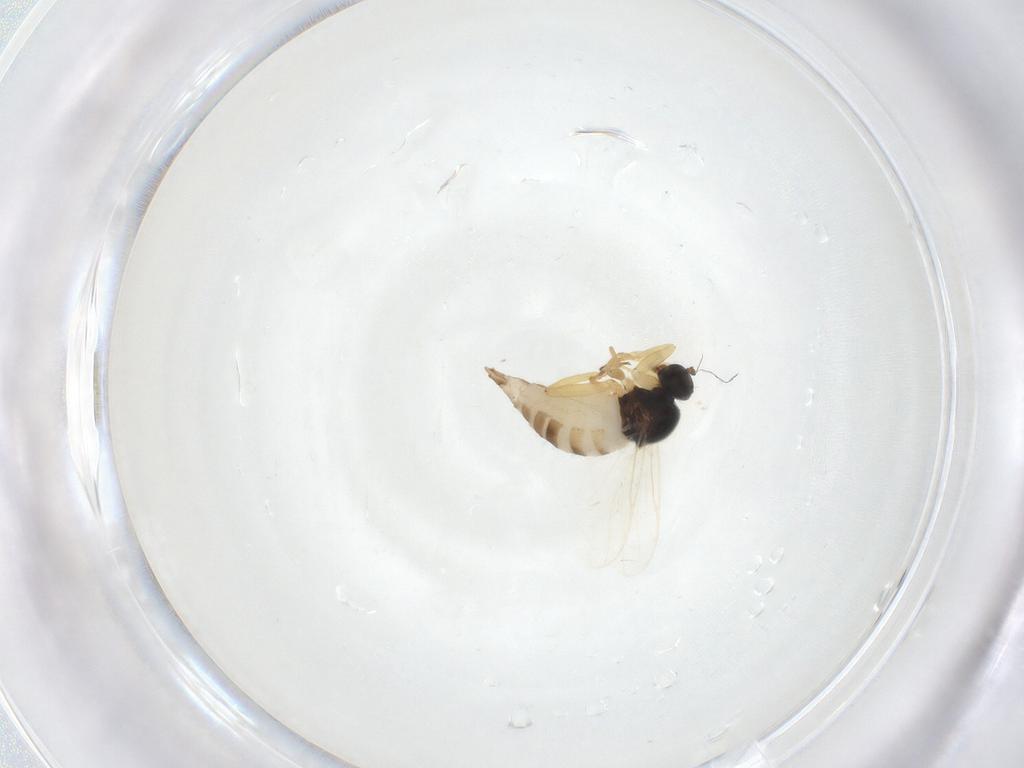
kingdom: Animalia
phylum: Arthropoda
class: Insecta
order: Diptera
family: Hybotidae
